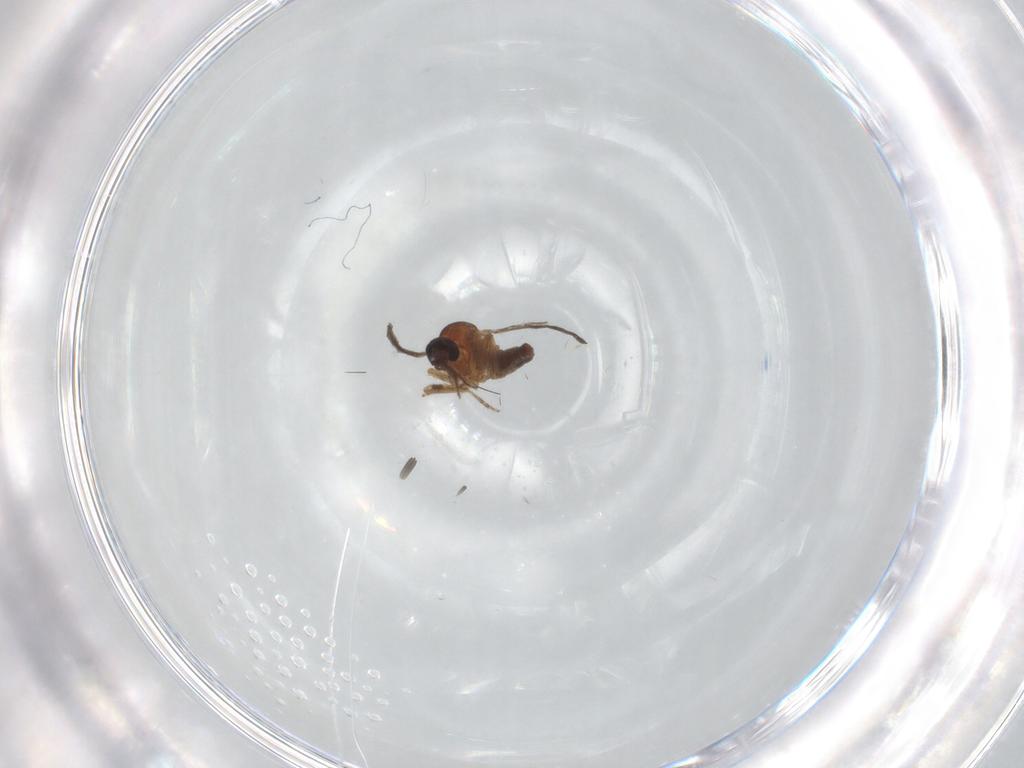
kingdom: Animalia
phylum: Arthropoda
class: Insecta
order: Diptera
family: Ceratopogonidae
